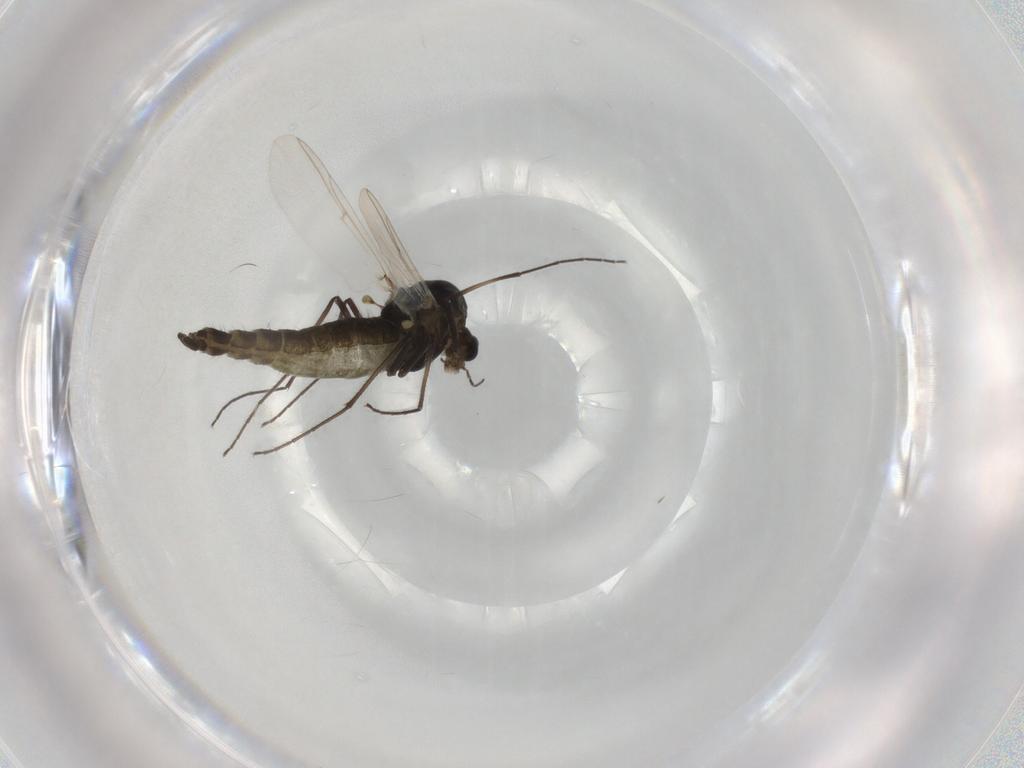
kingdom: Animalia
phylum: Arthropoda
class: Insecta
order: Diptera
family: Muscidae
